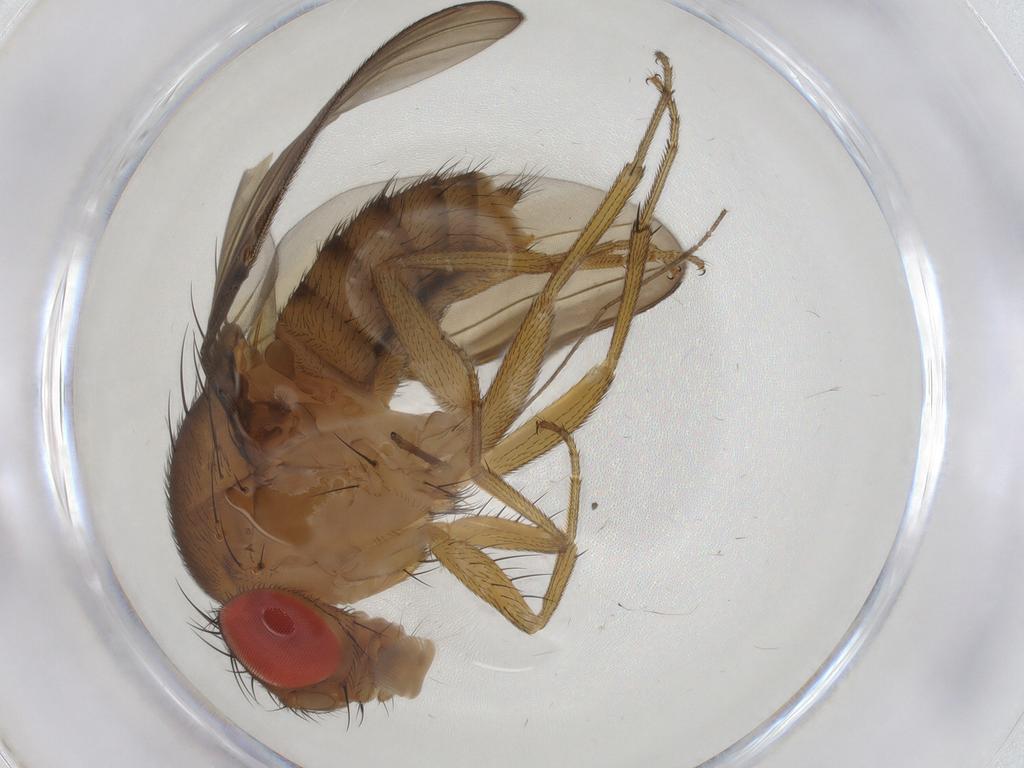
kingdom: Animalia
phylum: Arthropoda
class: Insecta
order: Diptera
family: Drosophilidae
